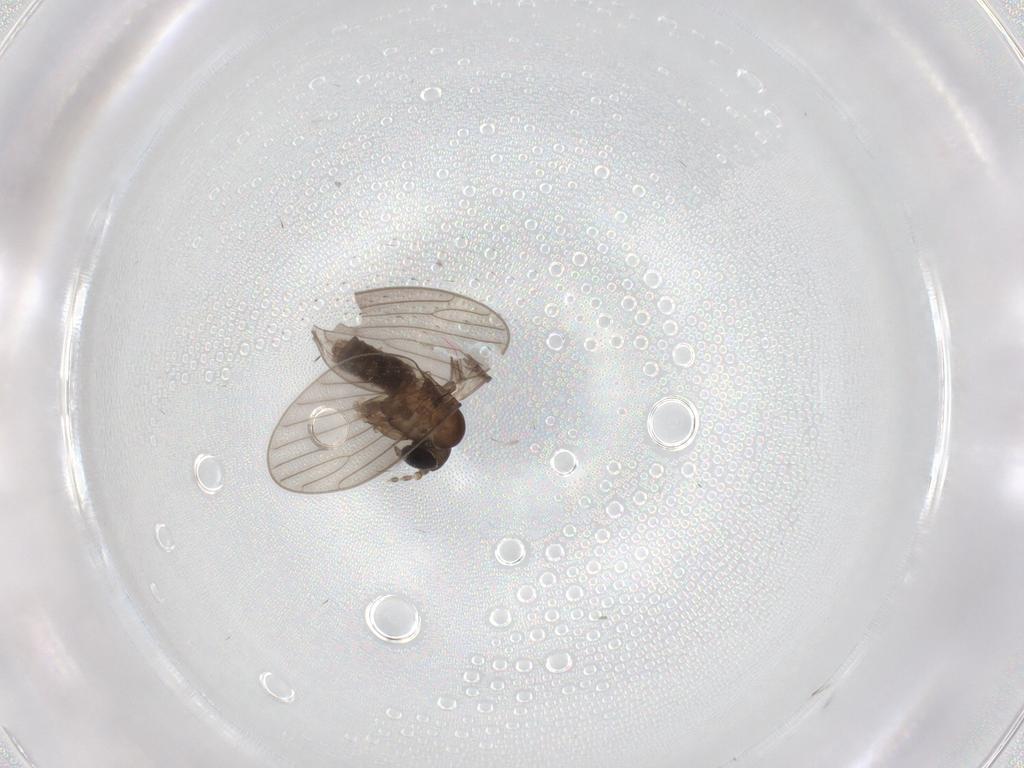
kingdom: Animalia
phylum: Arthropoda
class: Insecta
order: Diptera
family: Psychodidae
